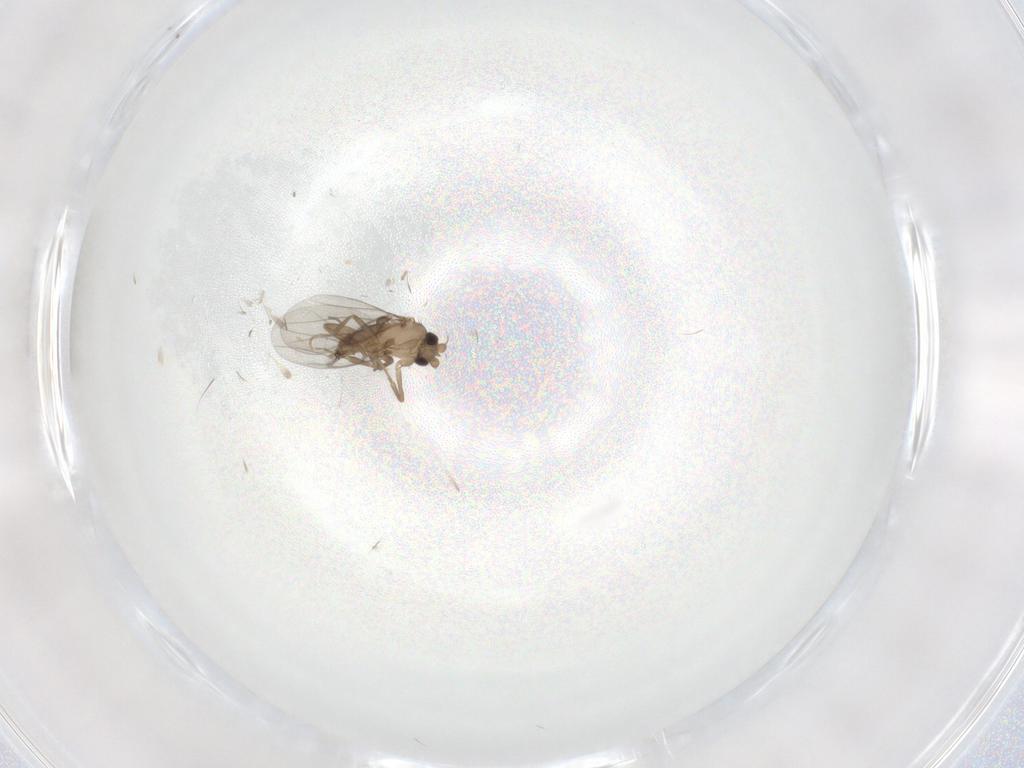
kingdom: Animalia
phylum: Arthropoda
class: Insecta
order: Diptera
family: Cecidomyiidae
